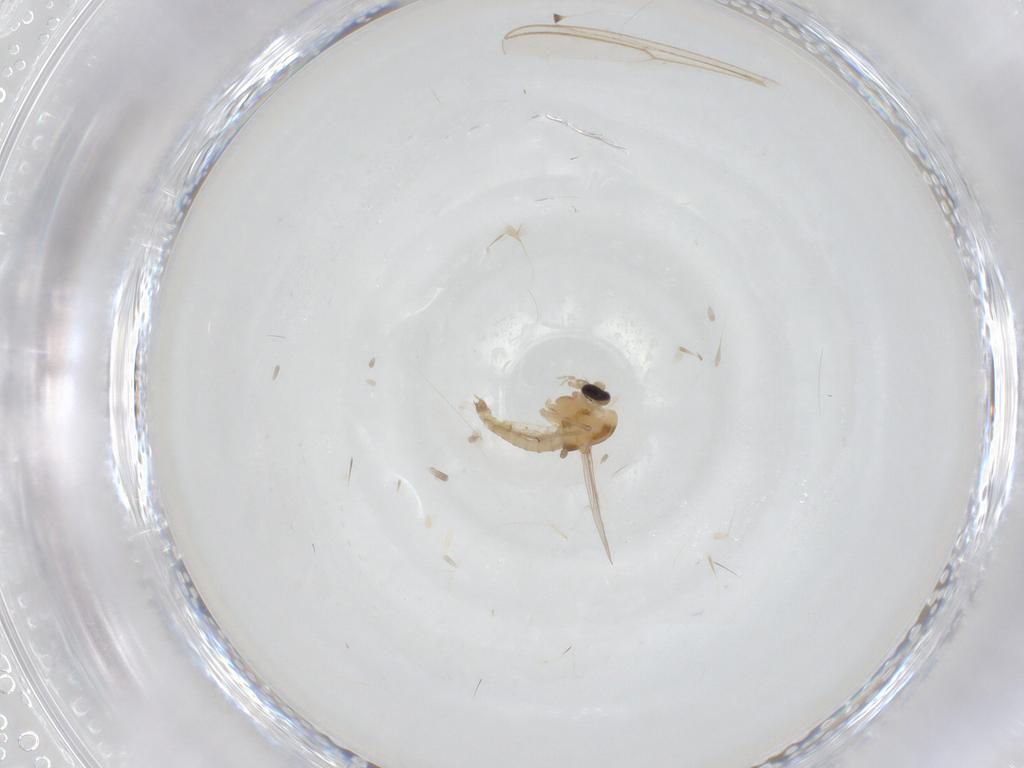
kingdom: Animalia
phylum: Arthropoda
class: Insecta
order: Diptera
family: Chironomidae
